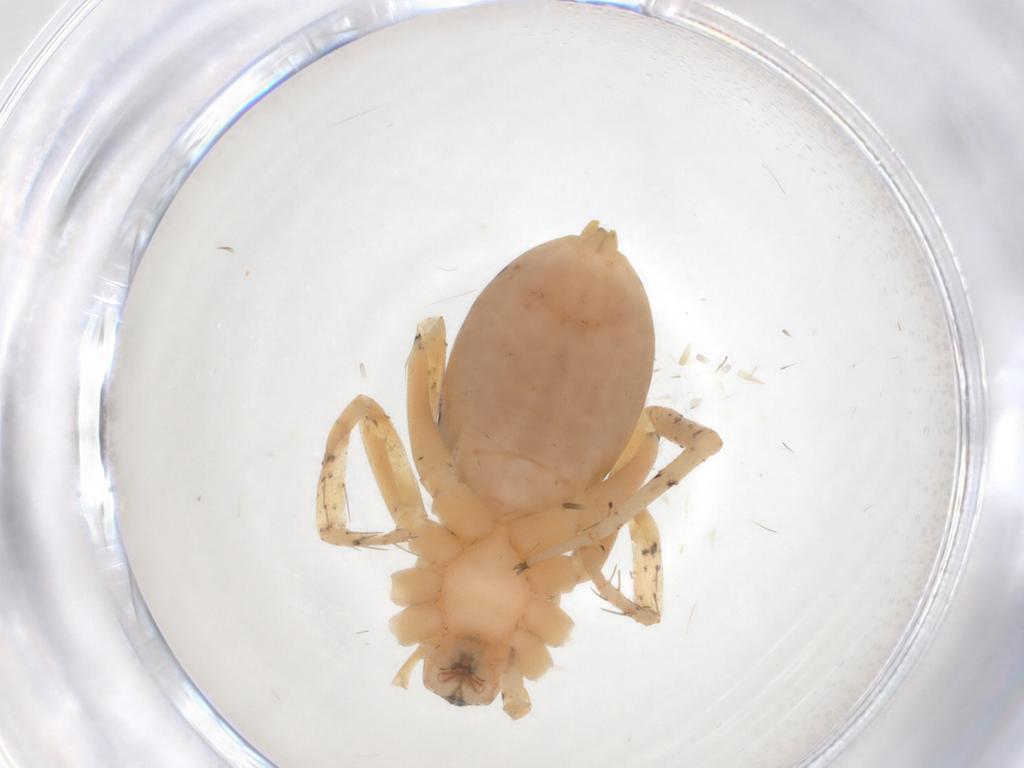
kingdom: Animalia
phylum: Arthropoda
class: Arachnida
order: Araneae
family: Anyphaenidae
